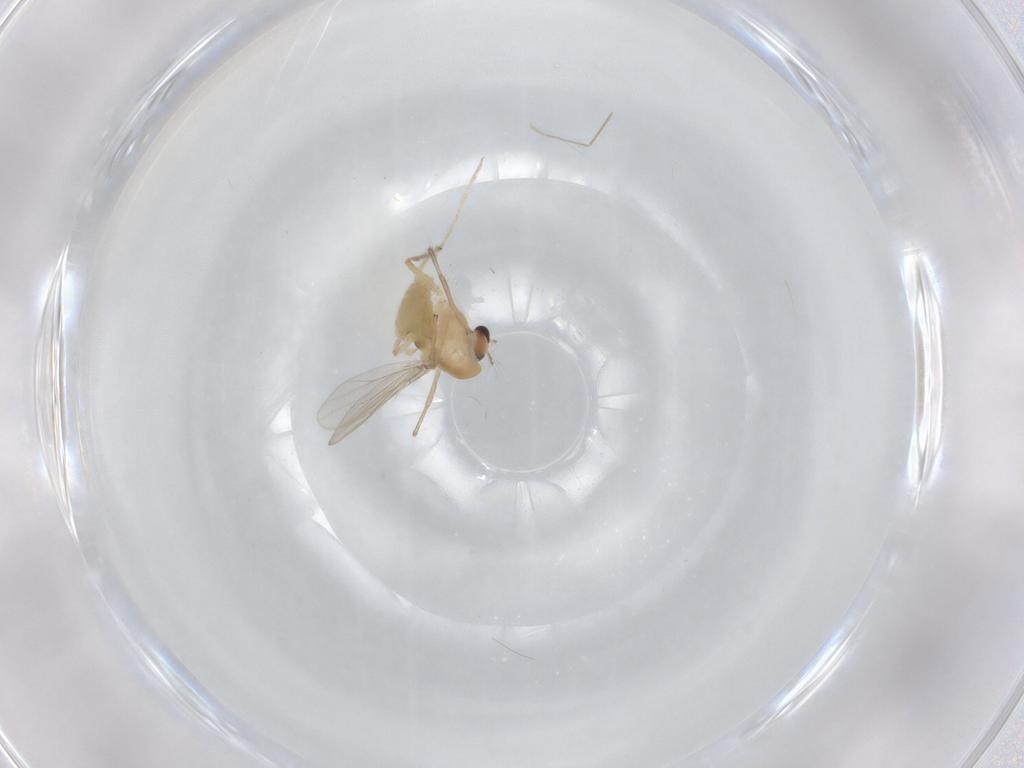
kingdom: Animalia
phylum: Arthropoda
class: Insecta
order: Diptera
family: Chironomidae
